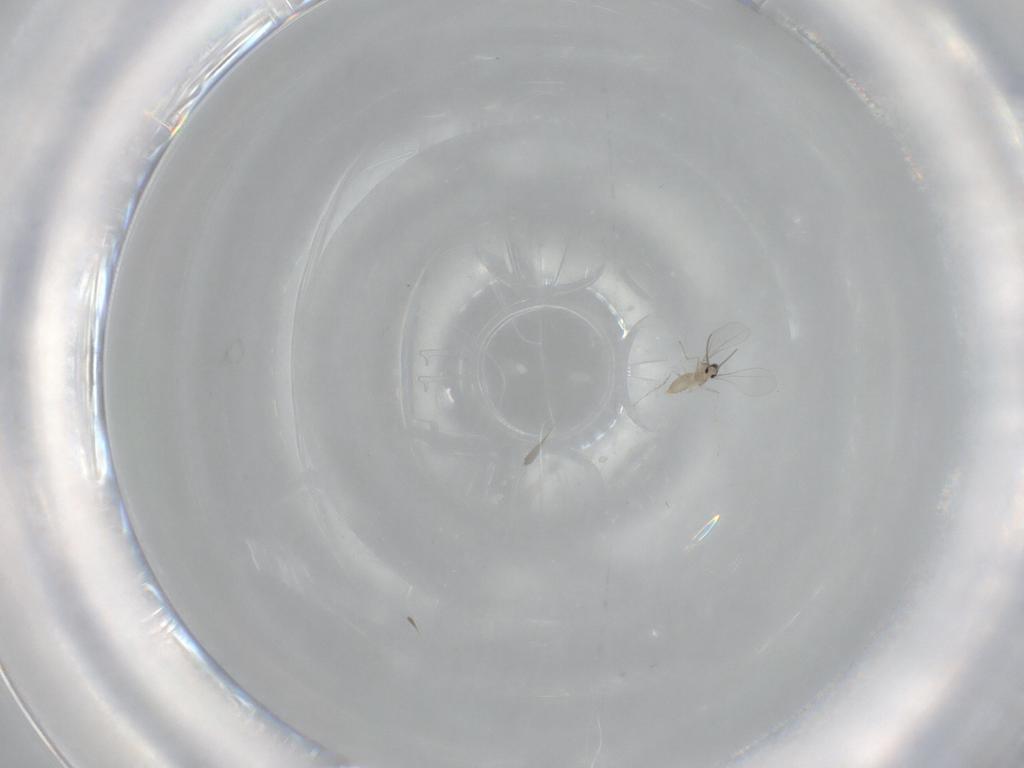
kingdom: Animalia
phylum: Arthropoda
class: Insecta
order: Diptera
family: Cecidomyiidae
